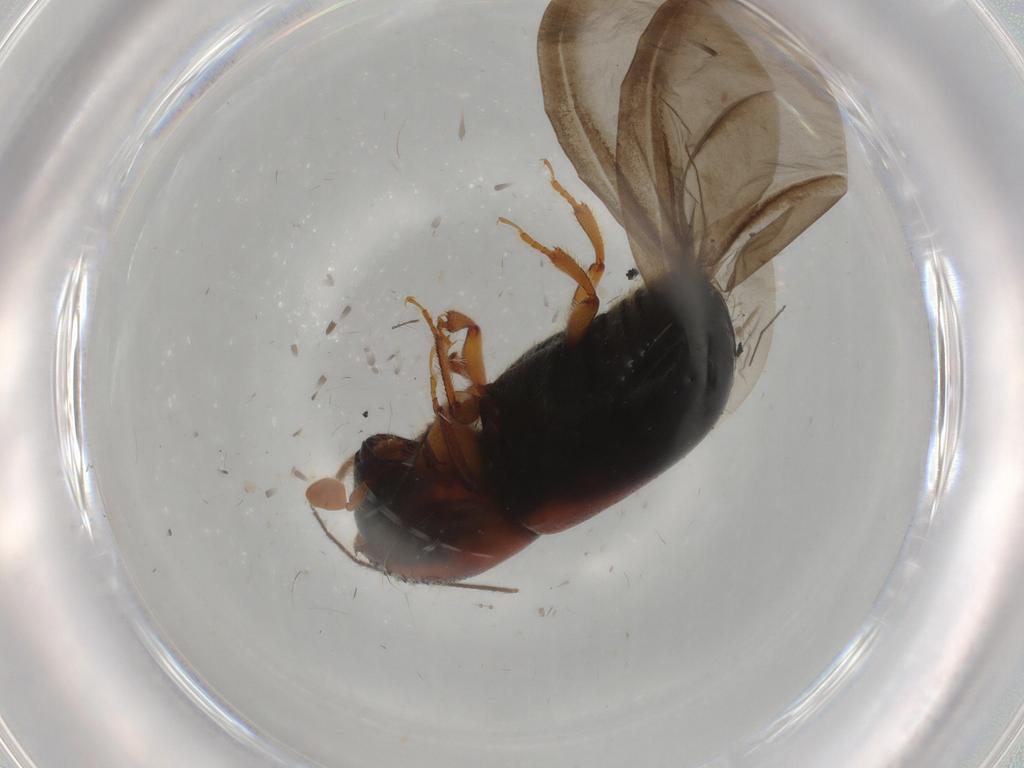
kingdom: Animalia
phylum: Arthropoda
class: Insecta
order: Coleoptera
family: Curculionidae
